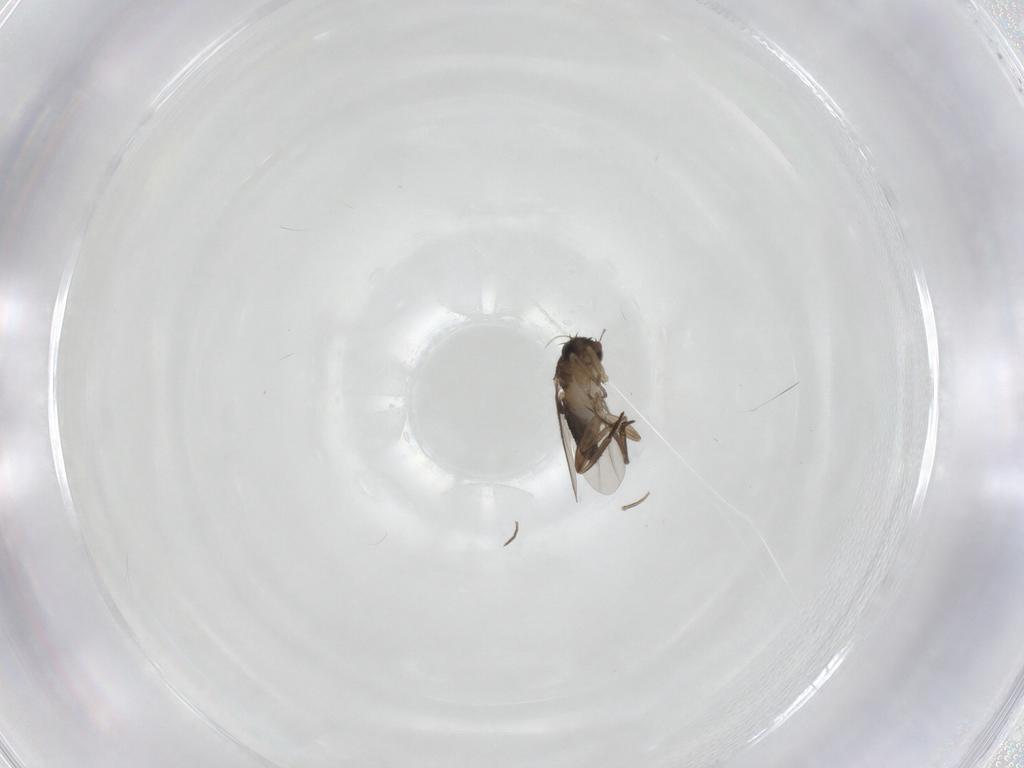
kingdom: Animalia
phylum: Arthropoda
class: Insecta
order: Diptera
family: Phoridae
